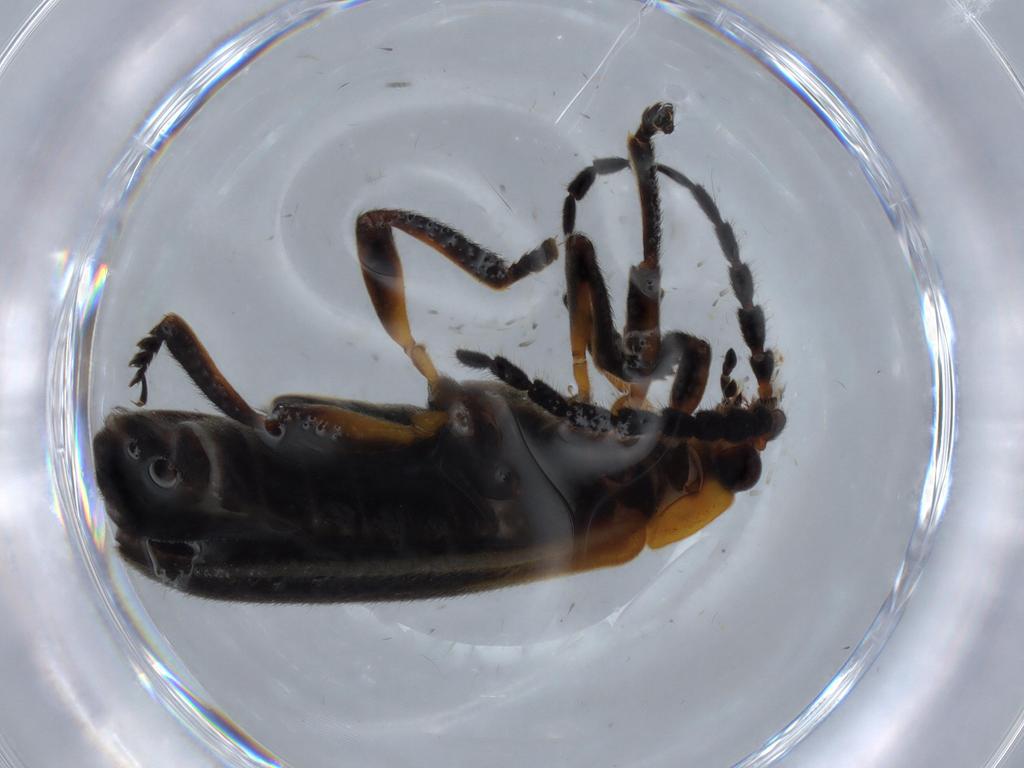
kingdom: Animalia
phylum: Arthropoda
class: Insecta
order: Coleoptera
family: Lycidae
